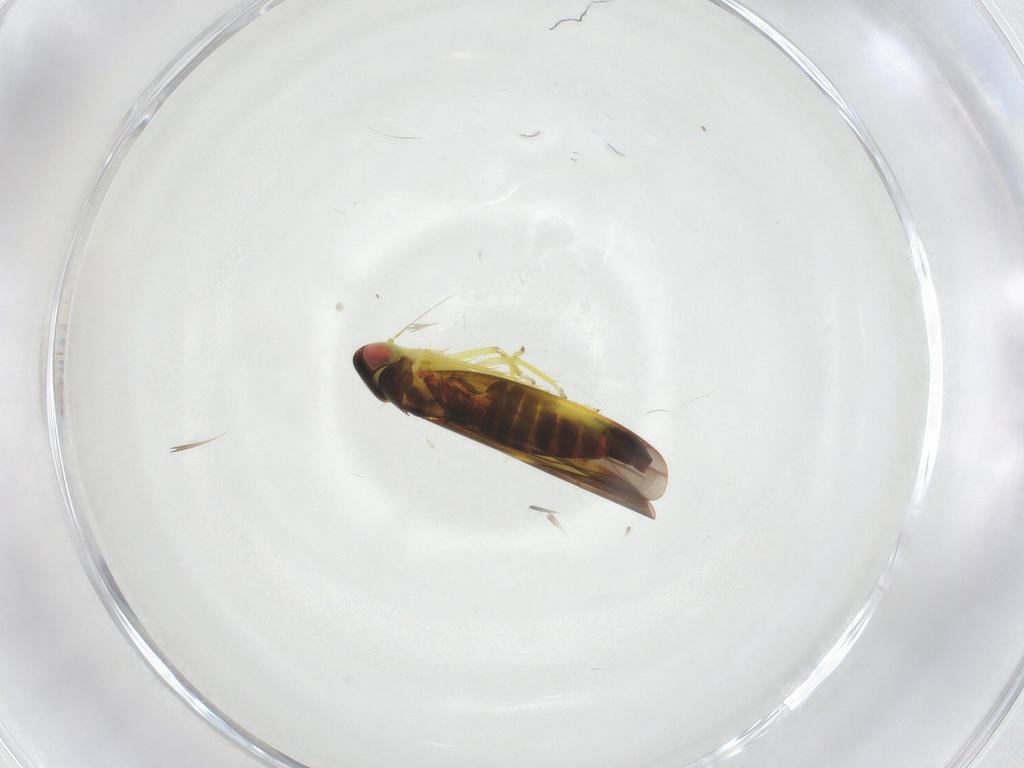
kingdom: Animalia
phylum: Arthropoda
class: Insecta
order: Hemiptera
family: Cicadellidae
